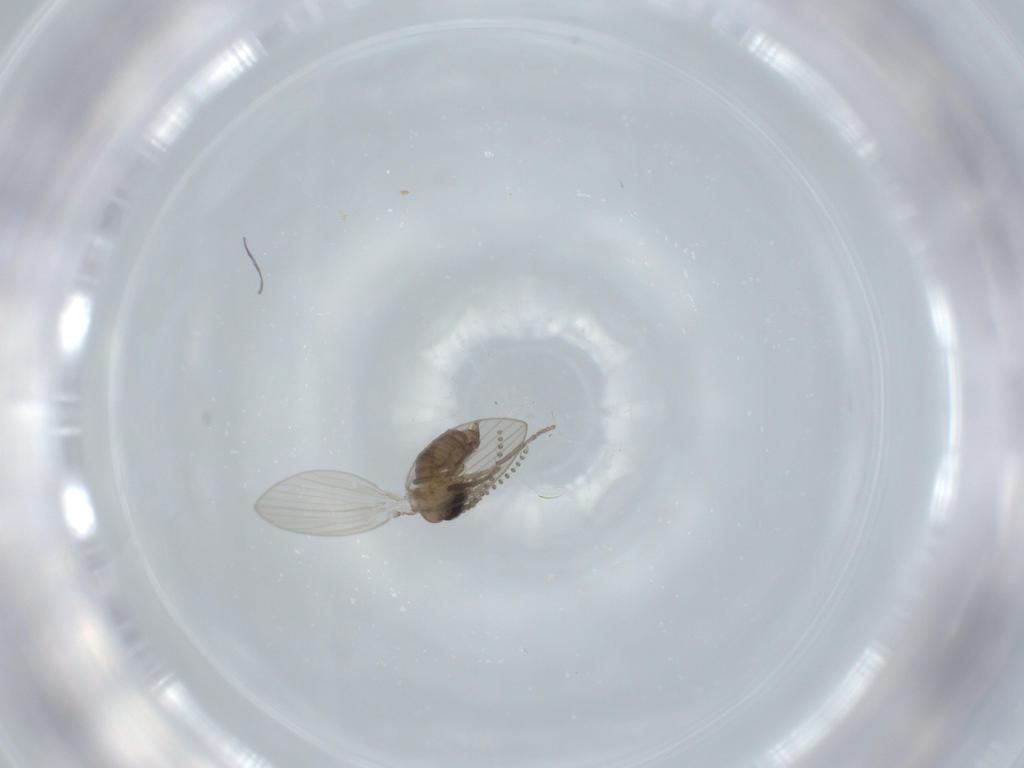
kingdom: Animalia
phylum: Arthropoda
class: Insecta
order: Diptera
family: Psychodidae
